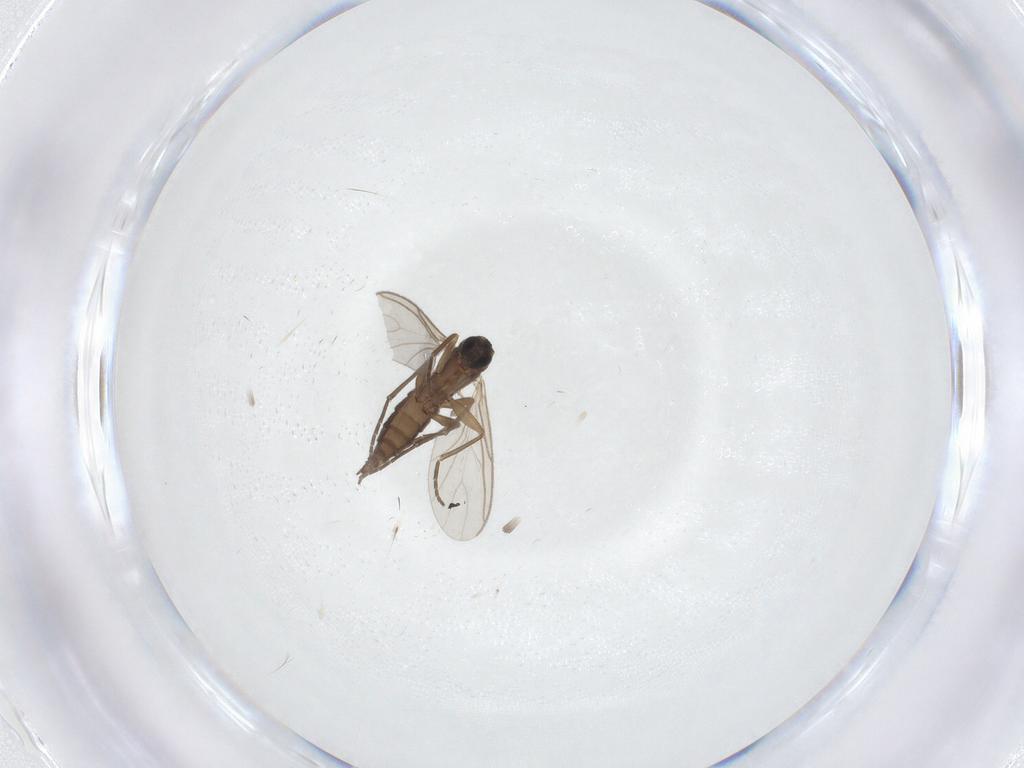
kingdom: Animalia
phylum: Arthropoda
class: Insecta
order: Diptera
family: Sciaridae
